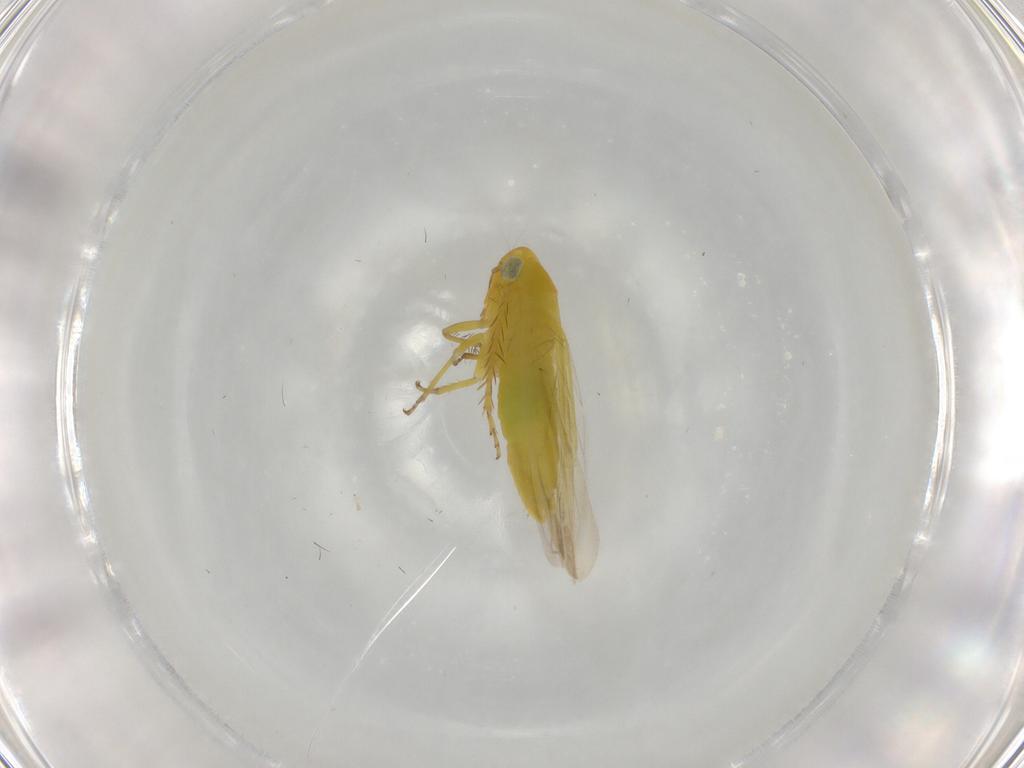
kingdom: Animalia
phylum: Arthropoda
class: Insecta
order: Hemiptera
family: Cicadellidae
